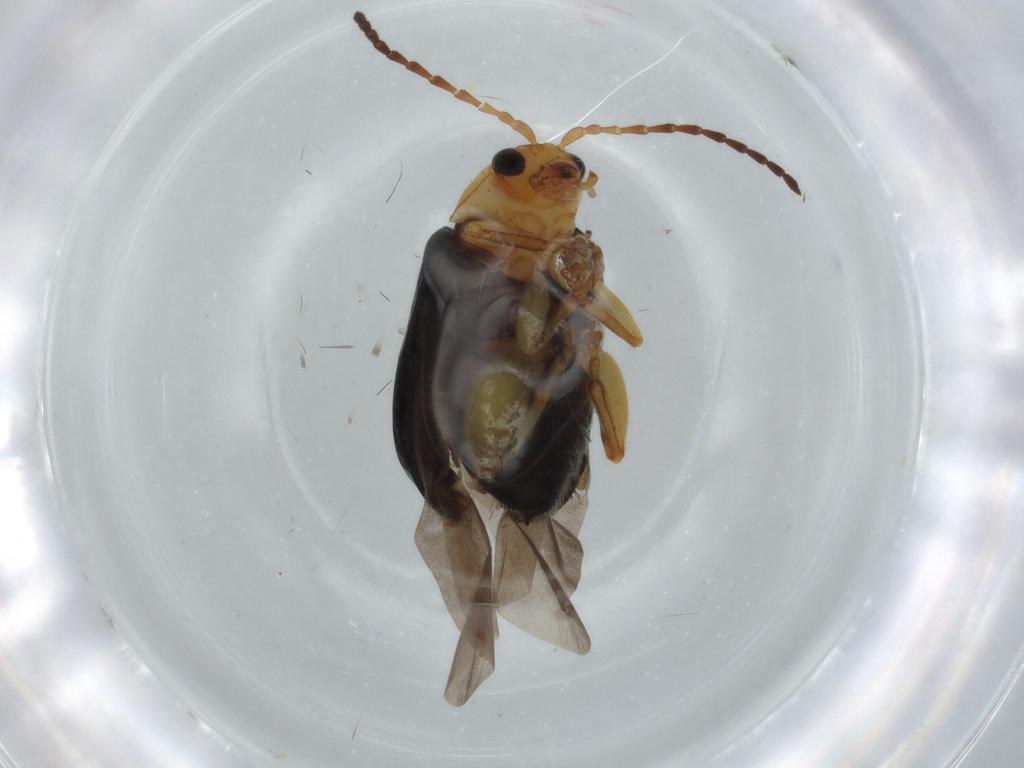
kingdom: Animalia
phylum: Arthropoda
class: Insecta
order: Coleoptera
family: Chrysomelidae
